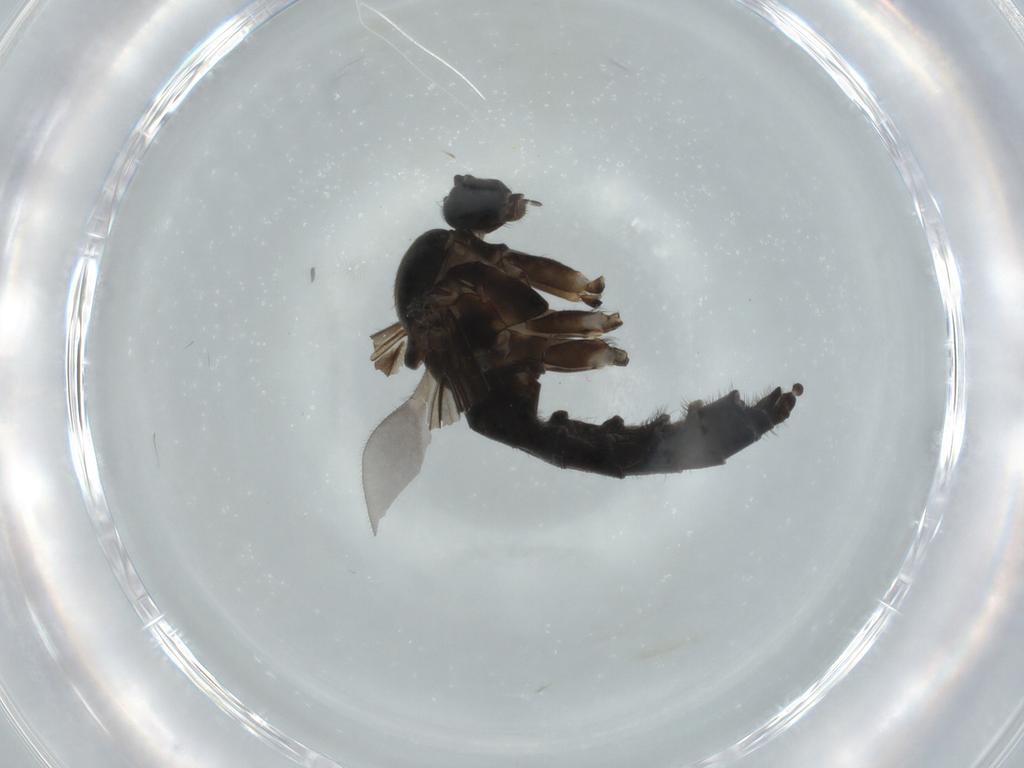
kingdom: Animalia
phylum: Arthropoda
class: Insecta
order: Diptera
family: Sciaridae
